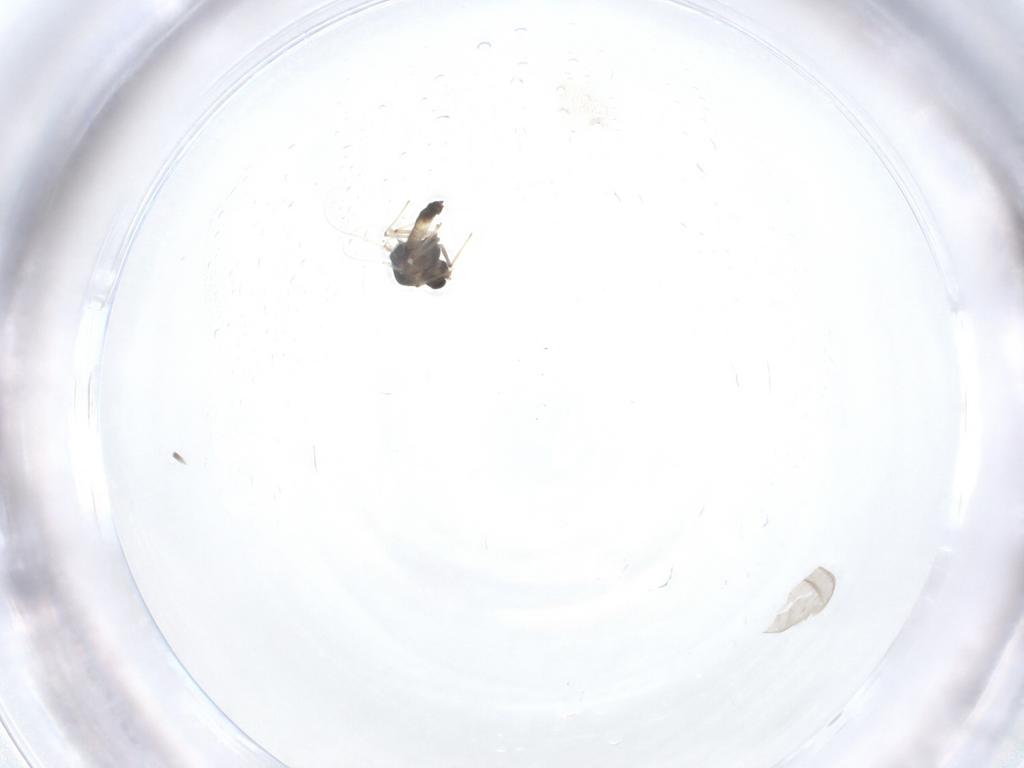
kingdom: Animalia
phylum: Arthropoda
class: Insecta
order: Diptera
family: Chironomidae
